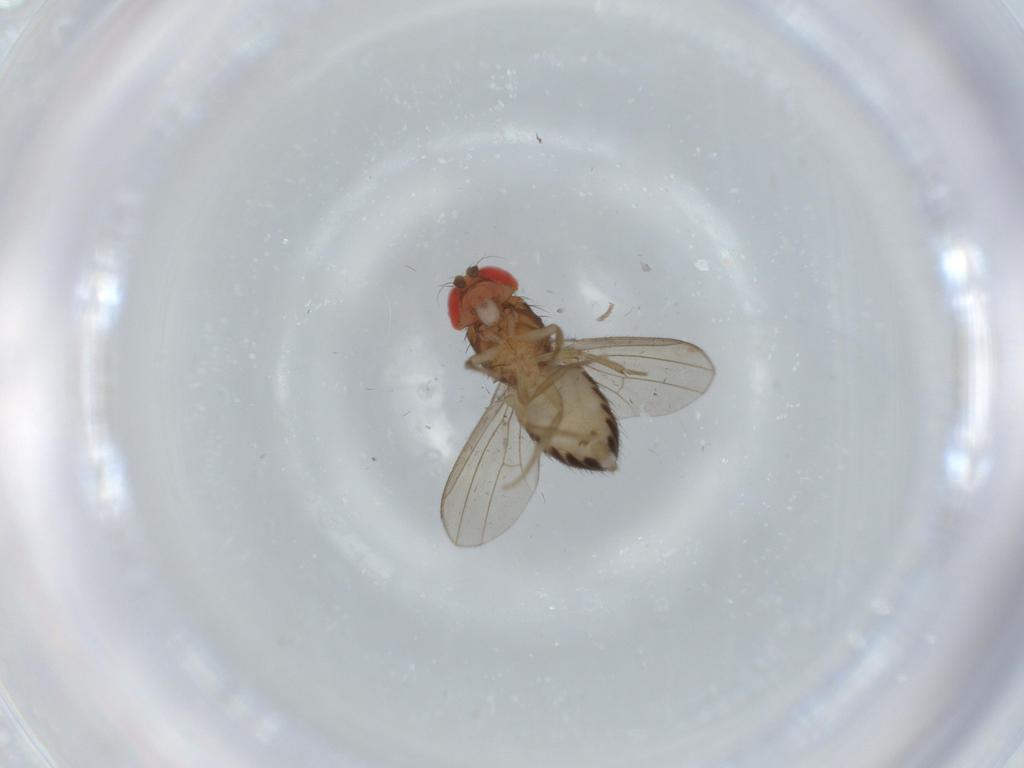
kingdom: Animalia
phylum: Arthropoda
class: Insecta
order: Diptera
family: Drosophilidae
